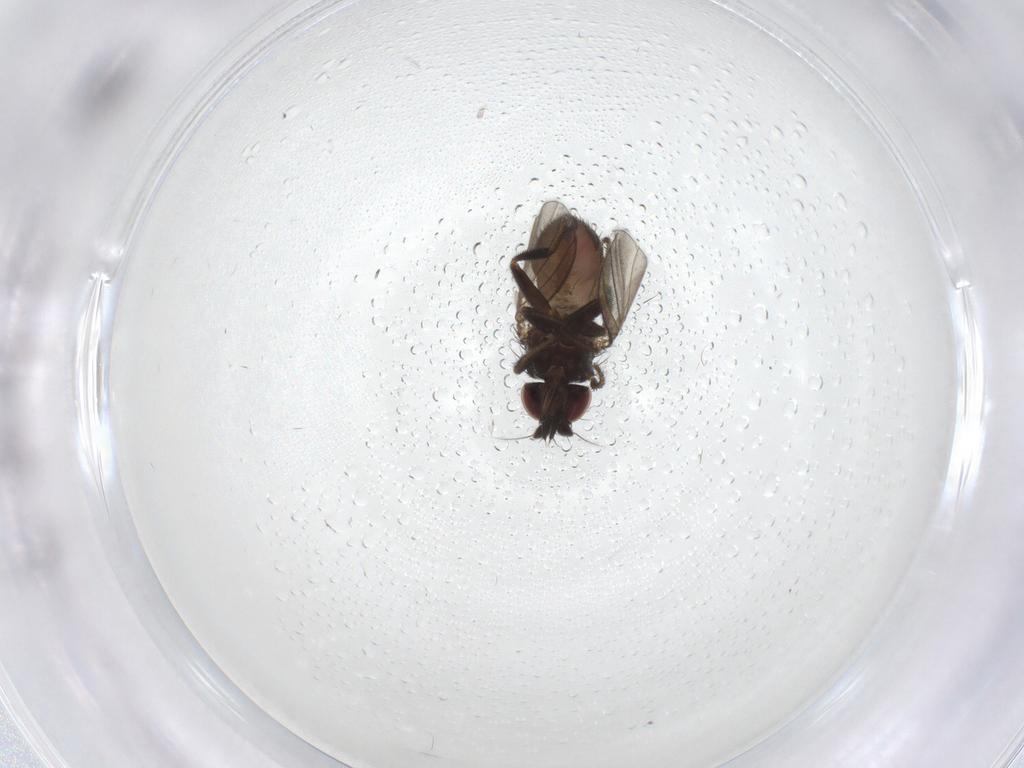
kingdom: Animalia
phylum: Arthropoda
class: Insecta
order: Diptera
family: Milichiidae
